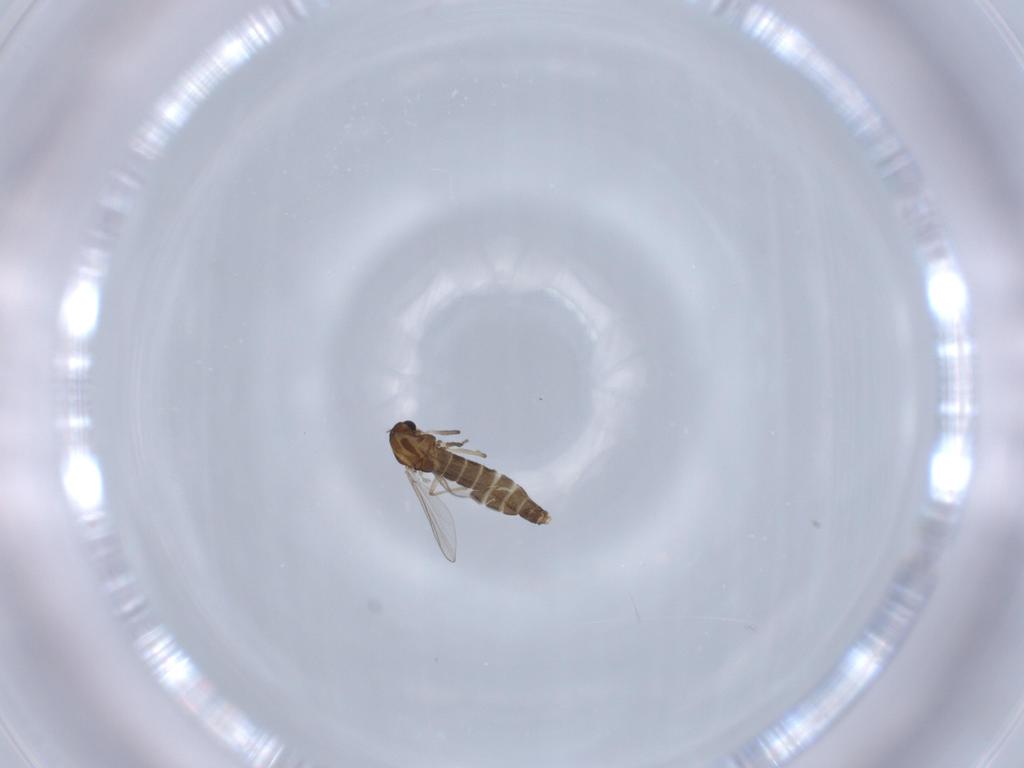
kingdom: Animalia
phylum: Arthropoda
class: Insecta
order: Diptera
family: Chironomidae
